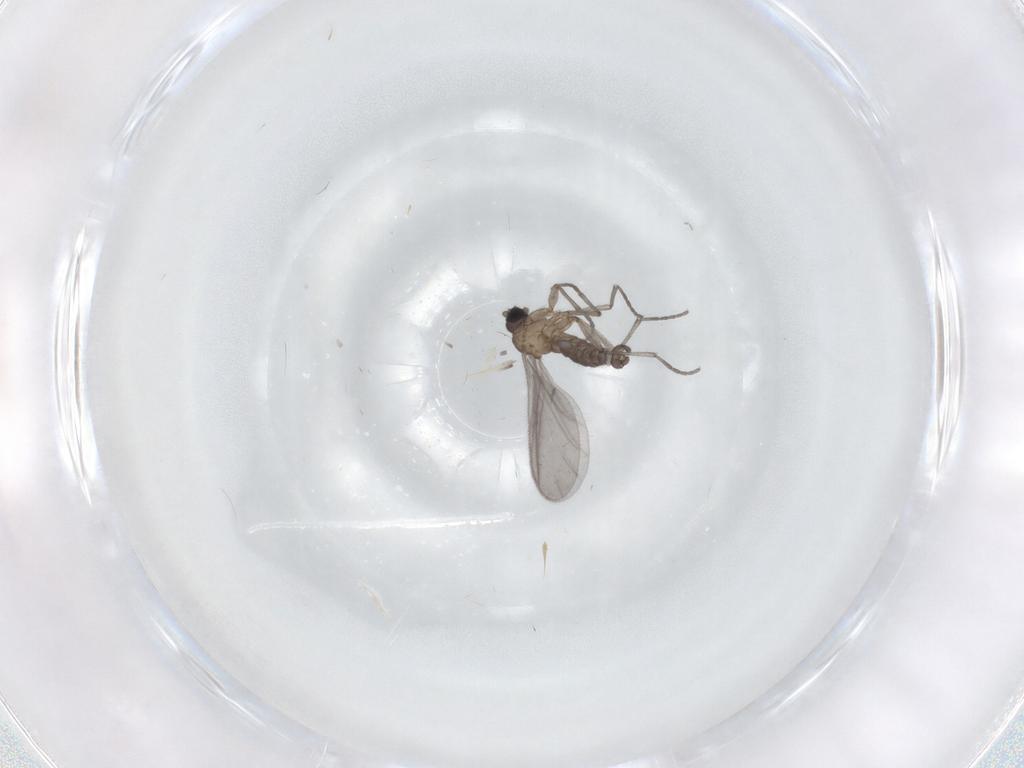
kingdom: Animalia
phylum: Arthropoda
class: Insecta
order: Diptera
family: Sciaridae
